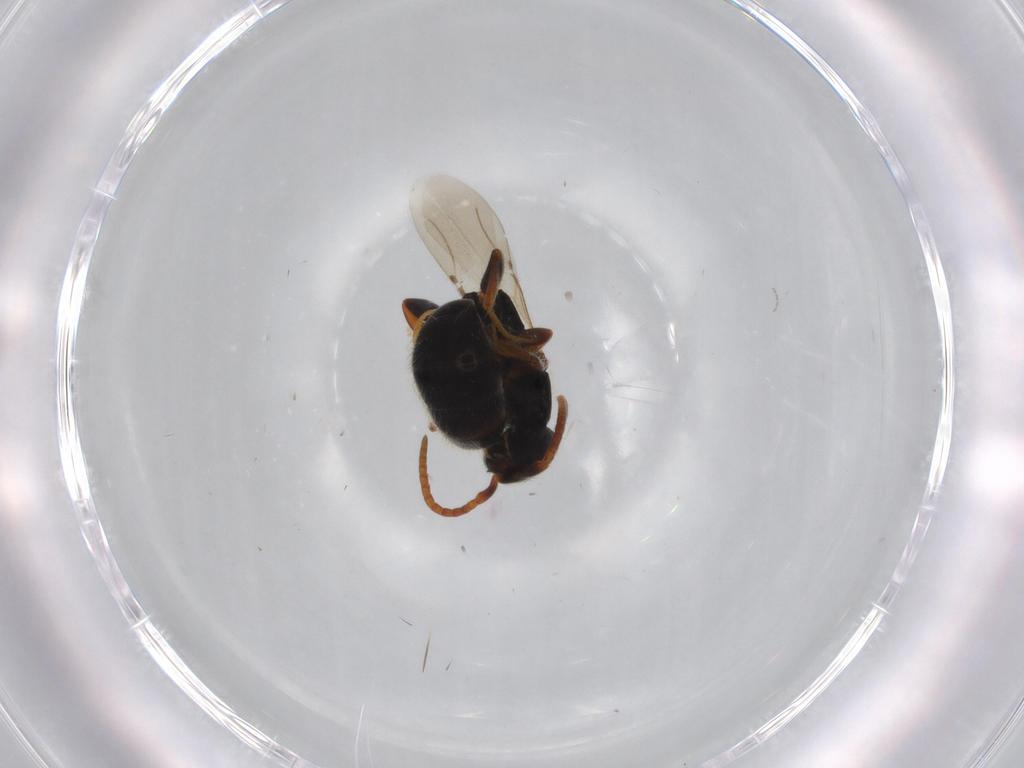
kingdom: Animalia
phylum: Arthropoda
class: Insecta
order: Hymenoptera
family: Bethylidae
